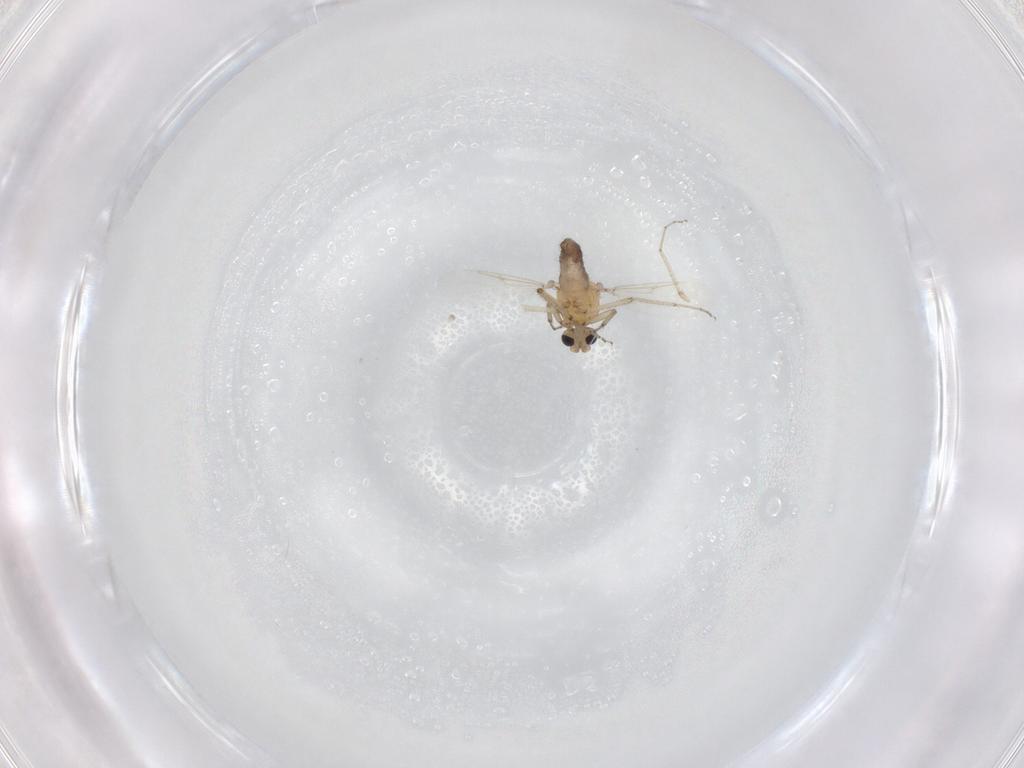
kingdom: Animalia
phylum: Arthropoda
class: Insecta
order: Diptera
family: Ceratopogonidae
